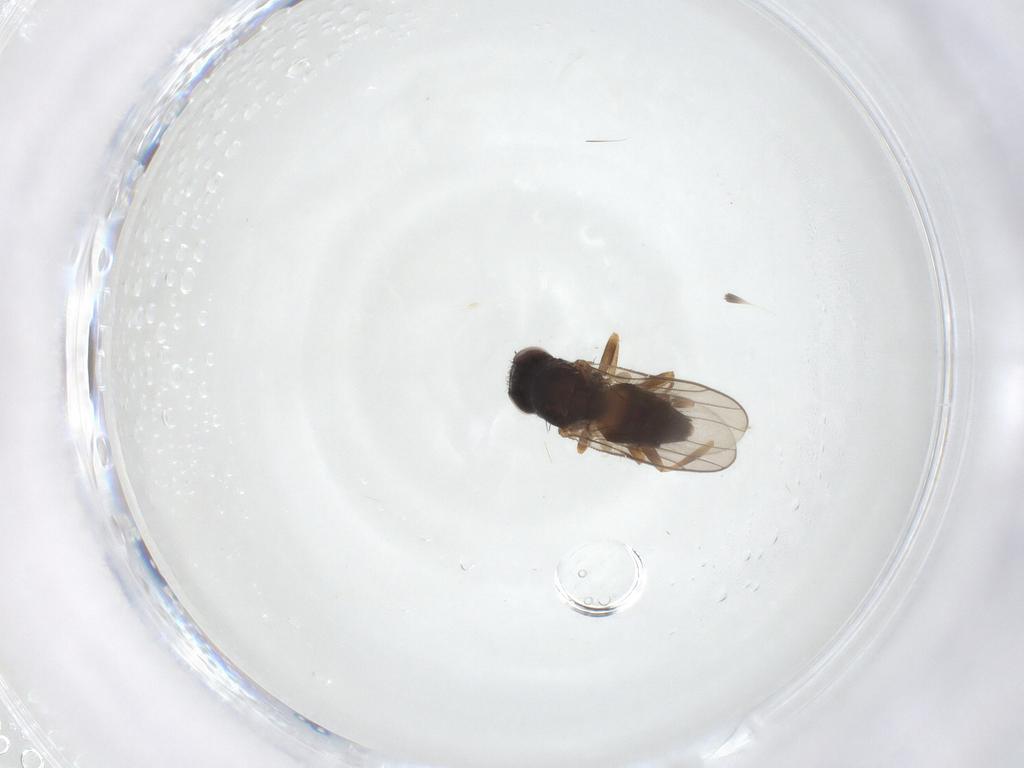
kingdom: Animalia
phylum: Arthropoda
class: Insecta
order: Diptera
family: Chloropidae
